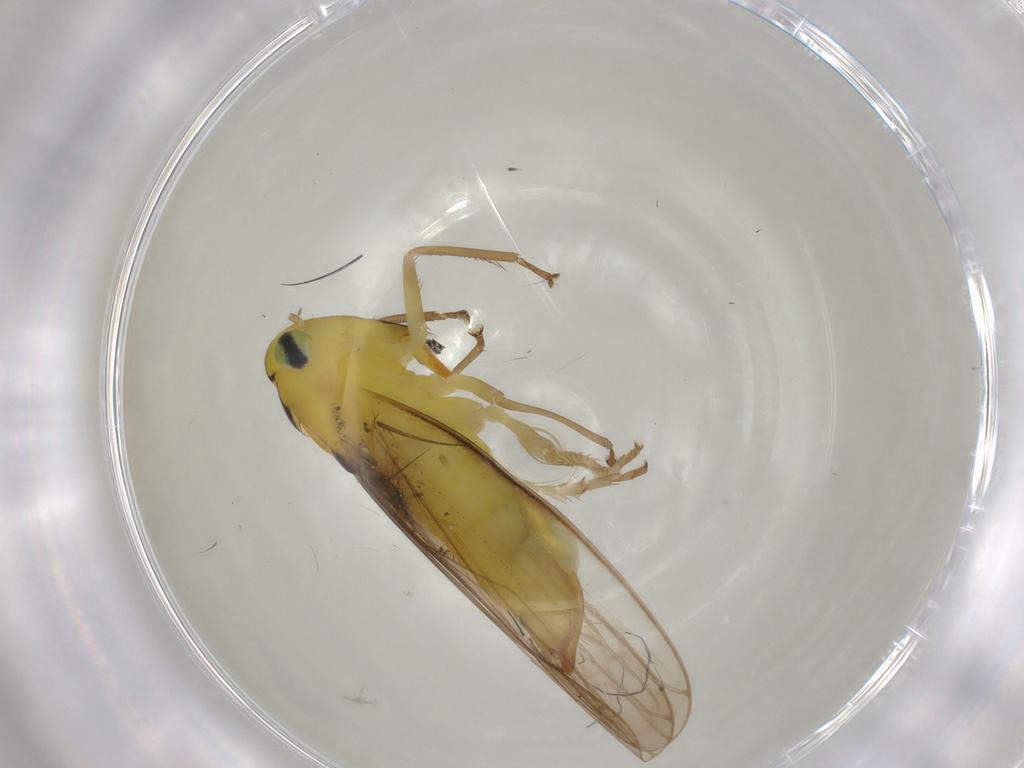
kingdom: Animalia
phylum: Arthropoda
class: Insecta
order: Hemiptera
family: Cicadellidae
